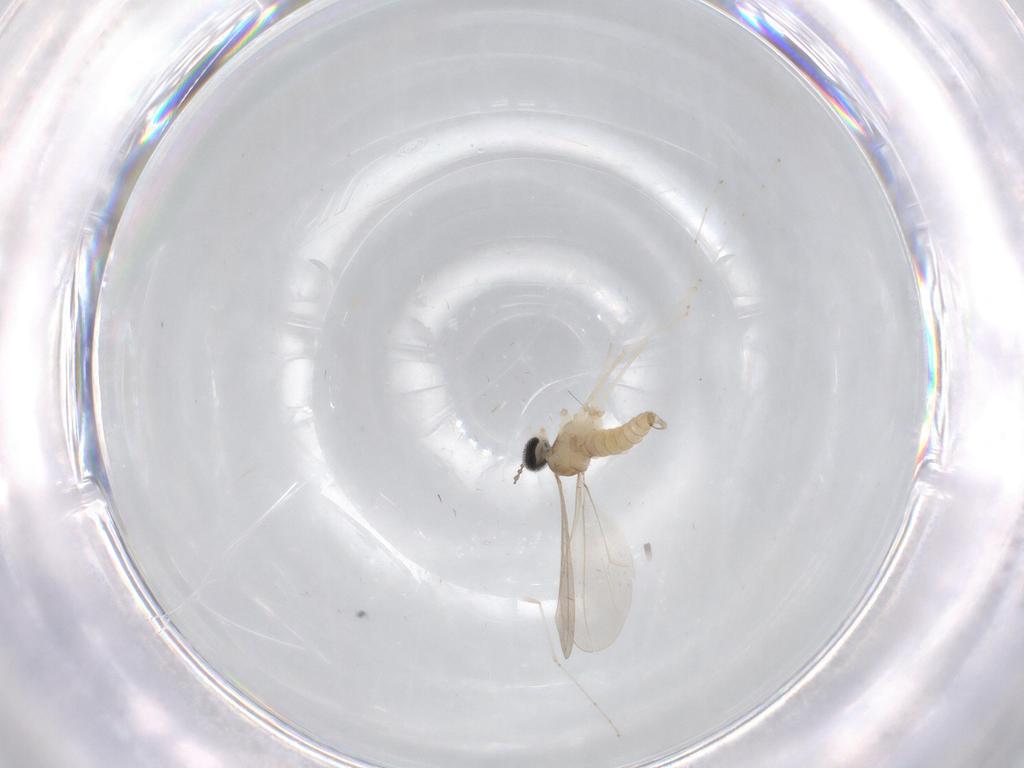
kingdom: Animalia
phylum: Arthropoda
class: Insecta
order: Diptera
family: Cecidomyiidae
